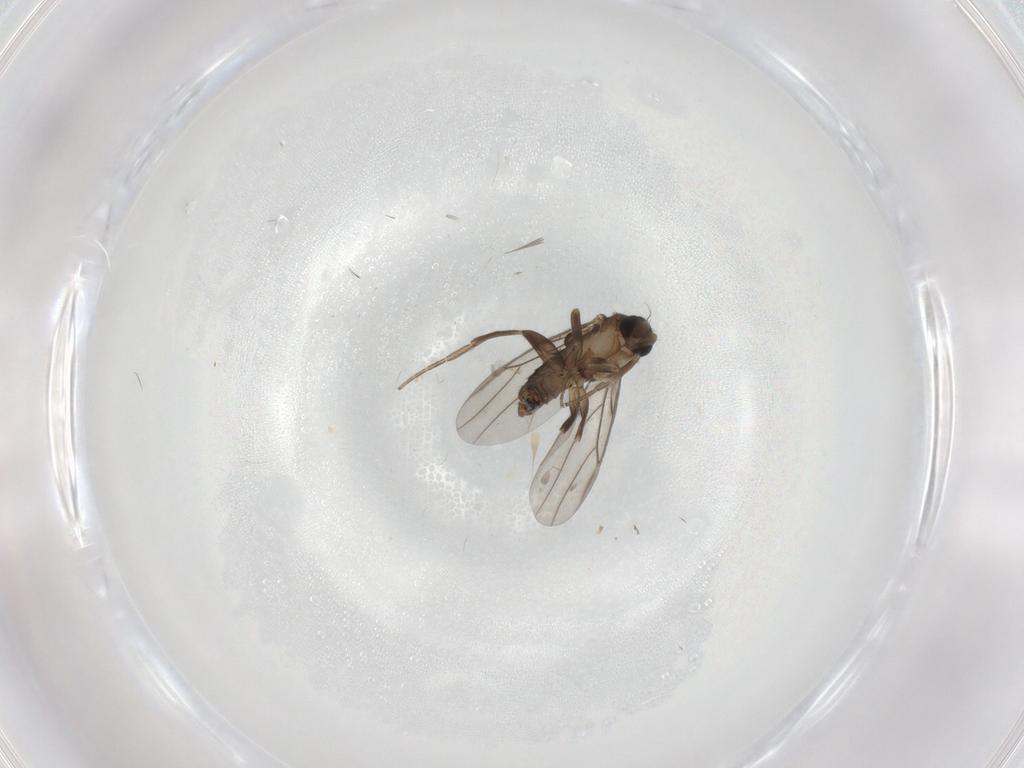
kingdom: Animalia
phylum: Arthropoda
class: Insecta
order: Diptera
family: Phoridae
